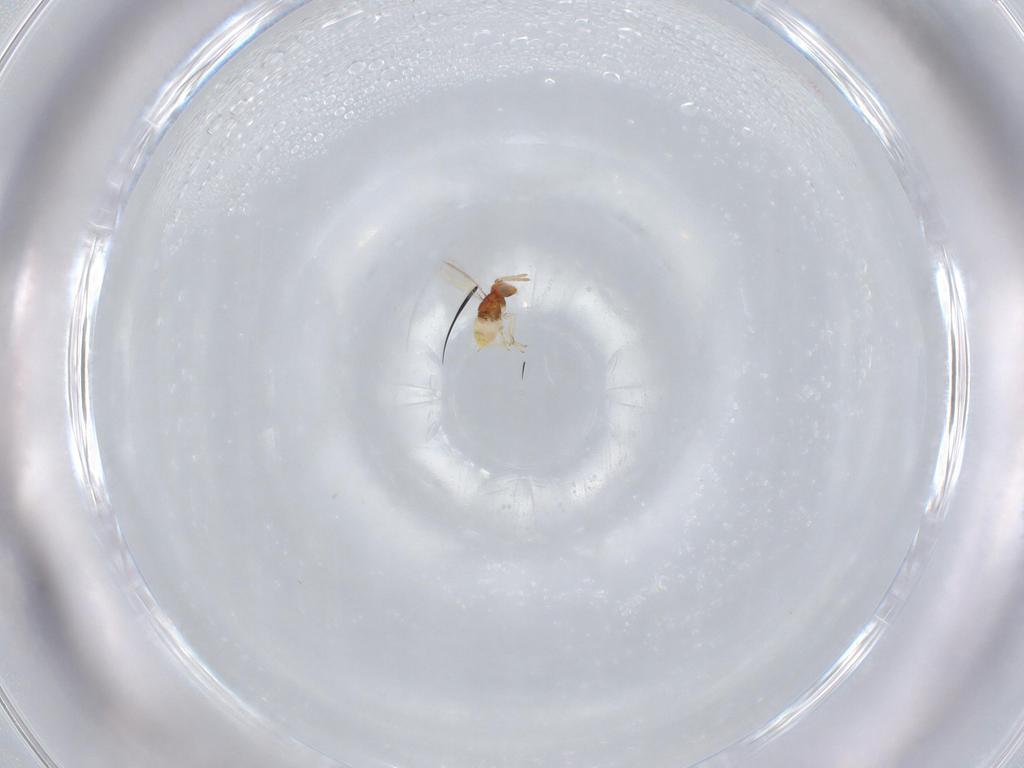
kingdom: Animalia
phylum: Arthropoda
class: Insecta
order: Hymenoptera
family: Aphelinidae
